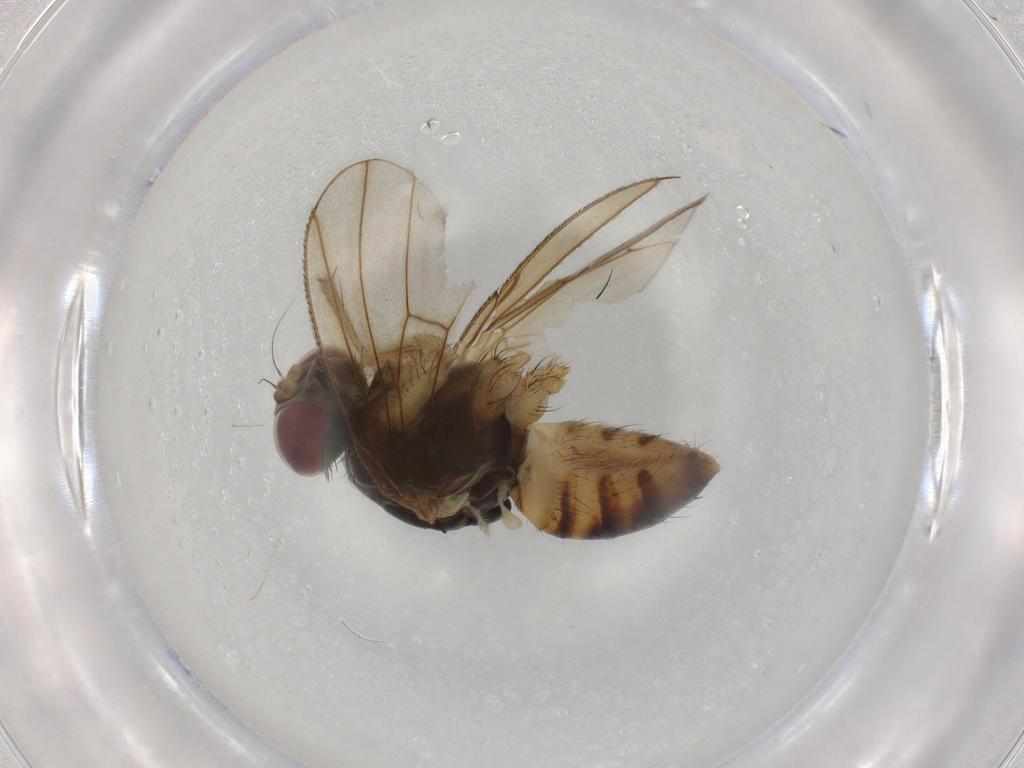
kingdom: Animalia
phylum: Arthropoda
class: Insecta
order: Diptera
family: Chironomidae
